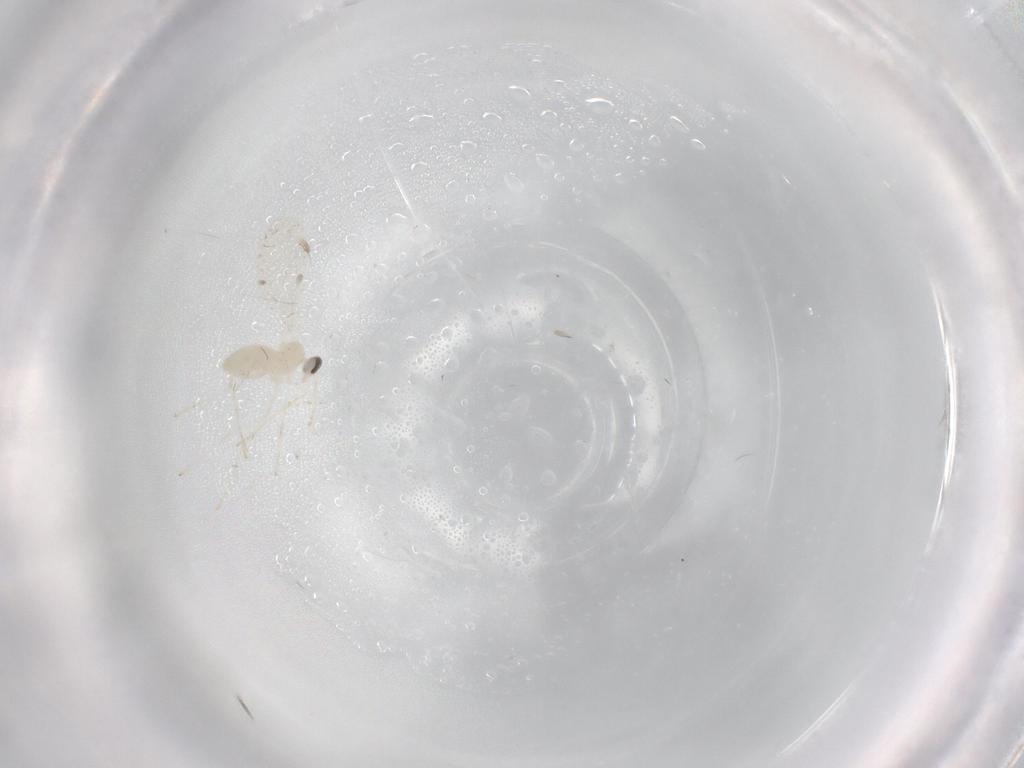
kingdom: Animalia
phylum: Arthropoda
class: Insecta
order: Diptera
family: Cecidomyiidae
